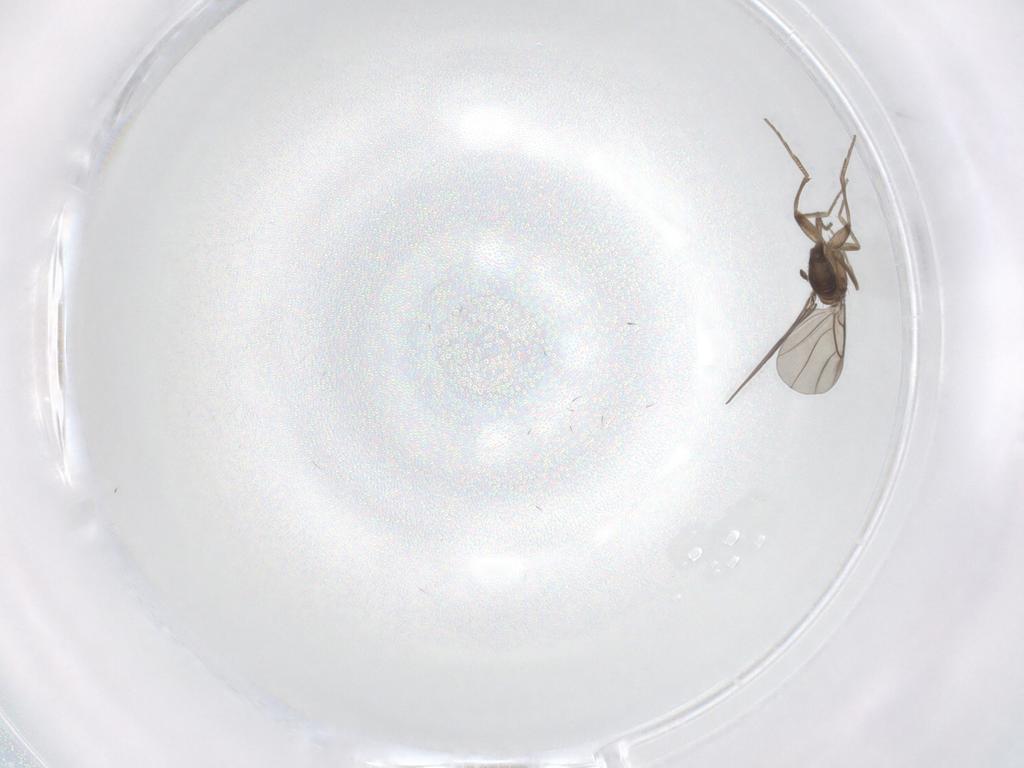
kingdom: Animalia
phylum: Arthropoda
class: Insecta
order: Diptera
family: Phoridae
